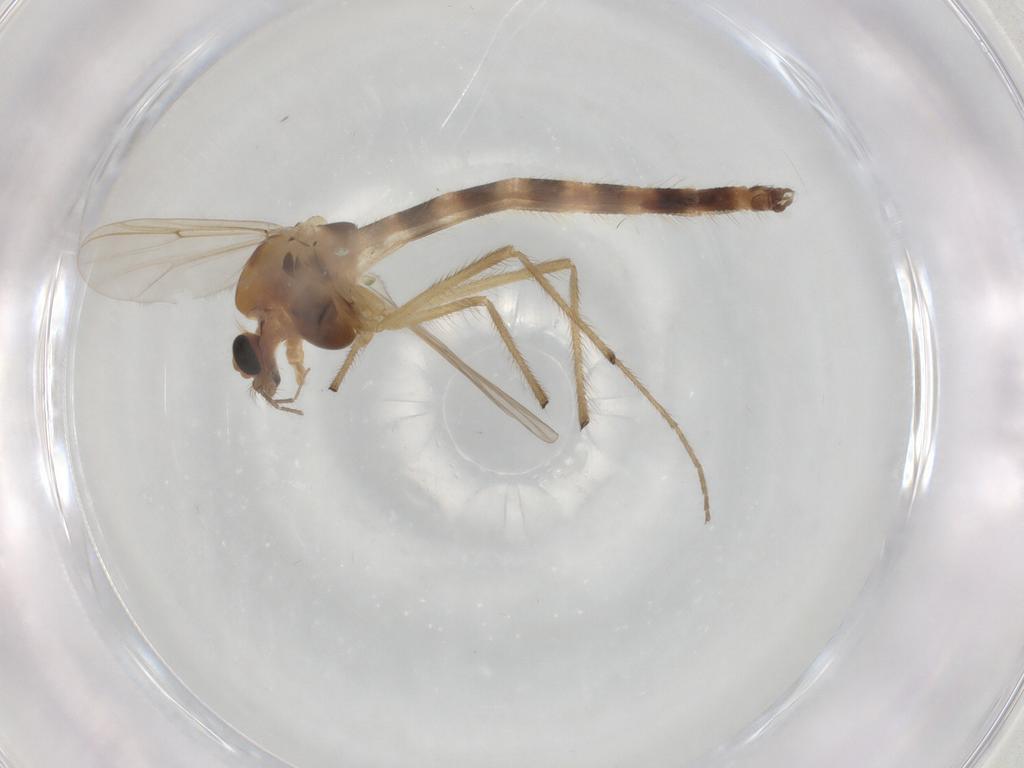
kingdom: Animalia
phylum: Arthropoda
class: Insecta
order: Diptera
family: Chironomidae
